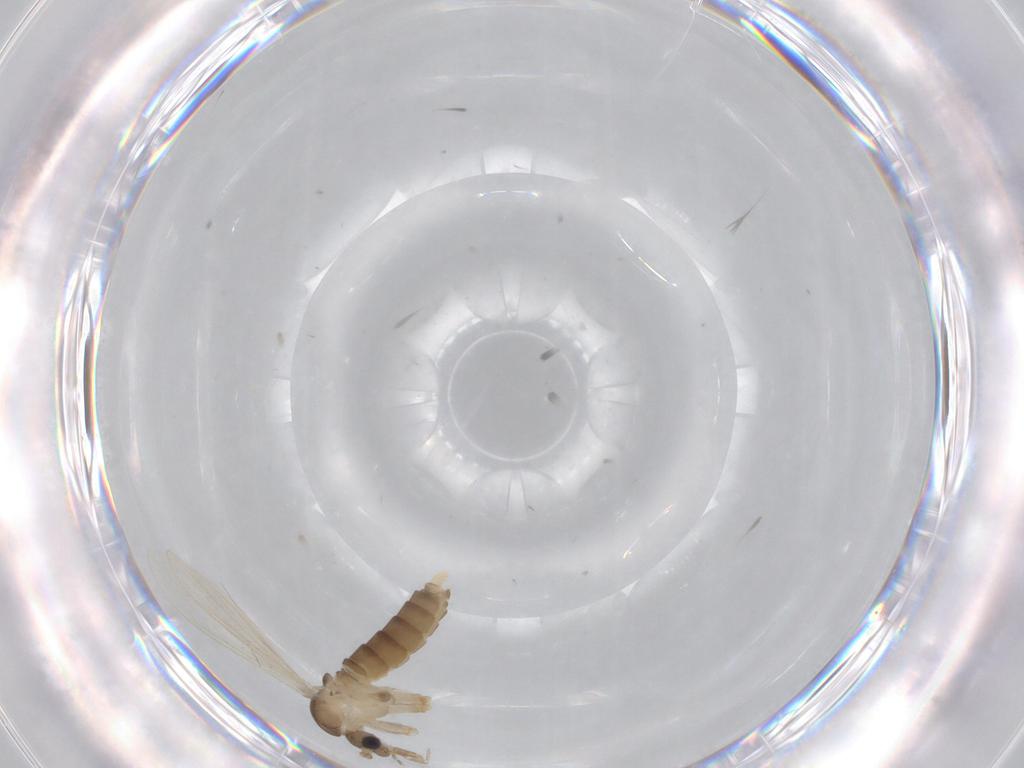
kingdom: Animalia
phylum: Arthropoda
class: Insecta
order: Diptera
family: Psychodidae
